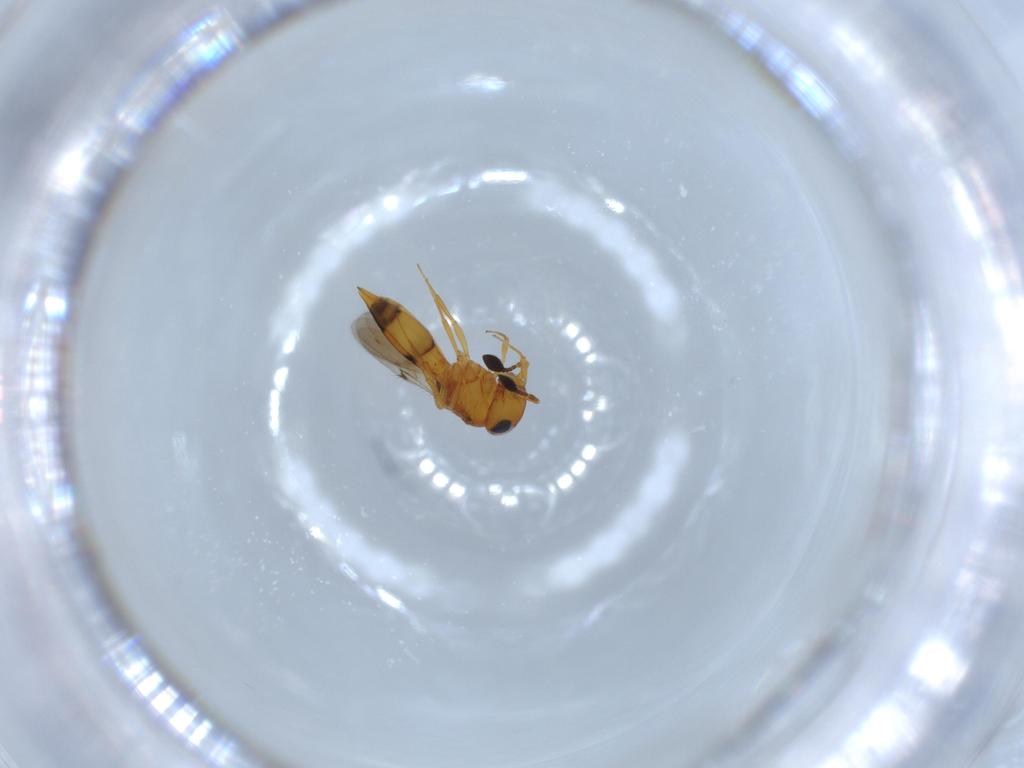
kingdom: Animalia
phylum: Arthropoda
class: Insecta
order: Hymenoptera
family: Scelionidae
